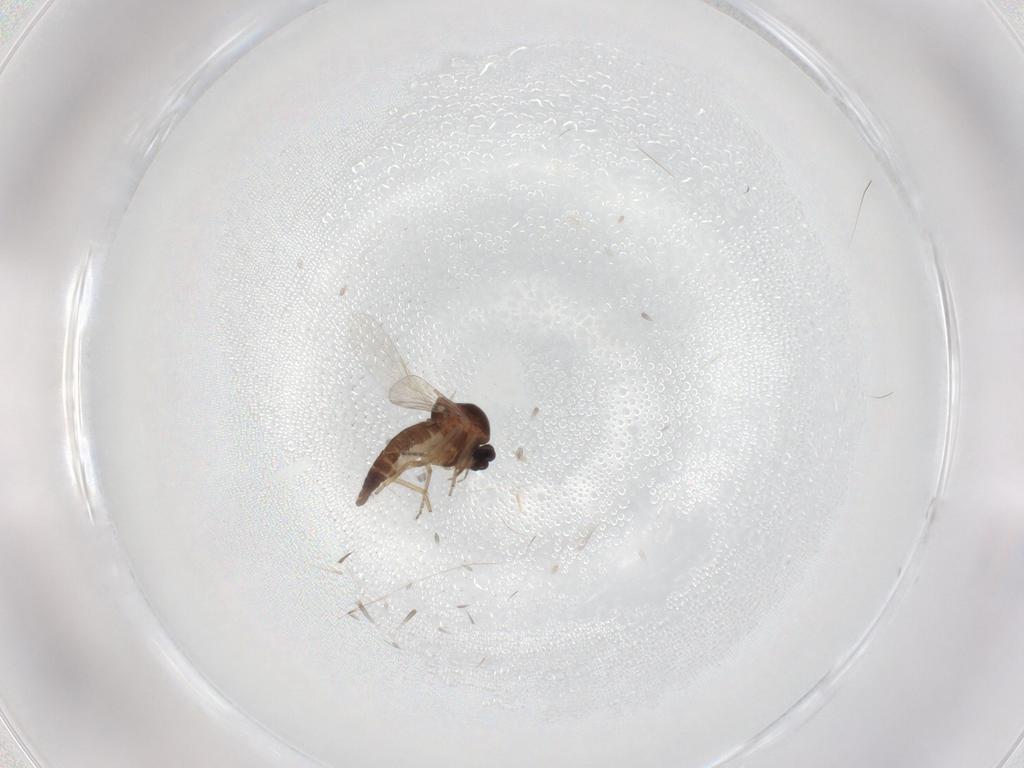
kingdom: Animalia
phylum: Arthropoda
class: Insecta
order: Diptera
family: Ceratopogonidae
